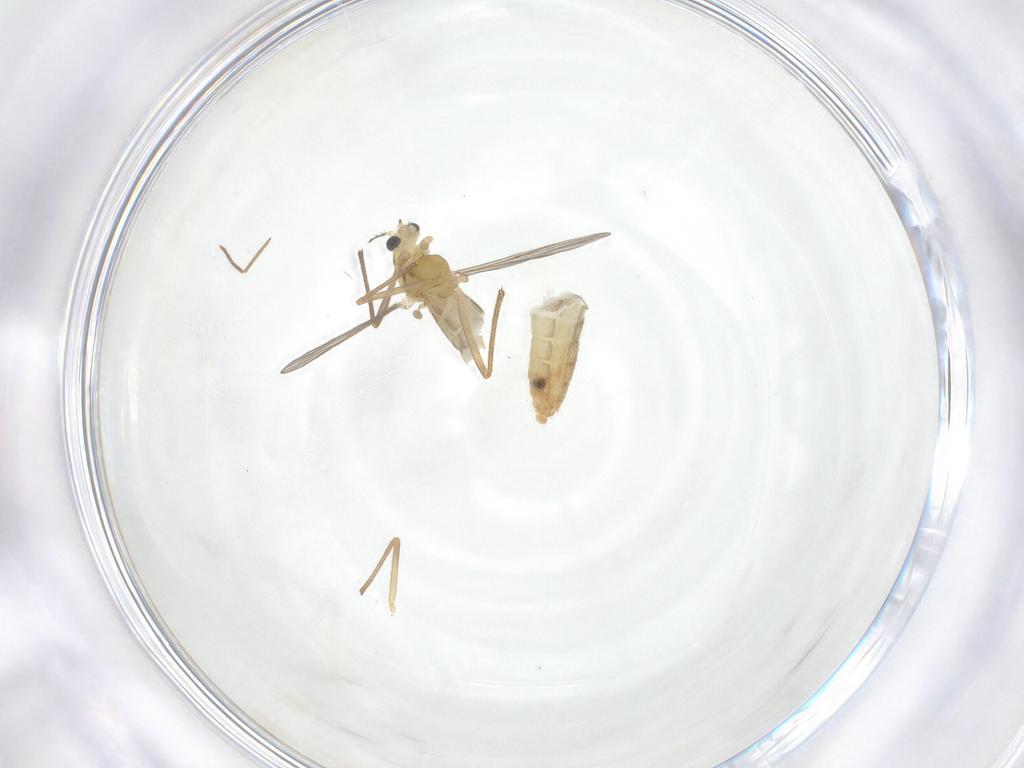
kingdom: Animalia
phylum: Arthropoda
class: Insecta
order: Diptera
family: Chironomidae
